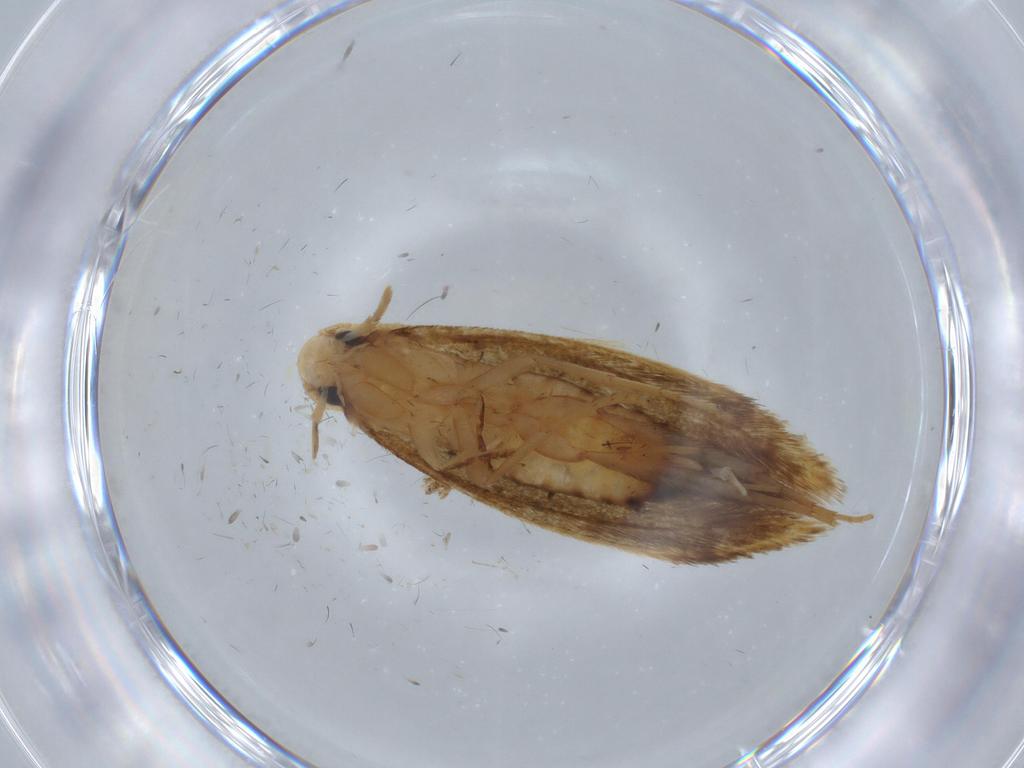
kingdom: Animalia
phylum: Arthropoda
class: Insecta
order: Lepidoptera
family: Tineidae
